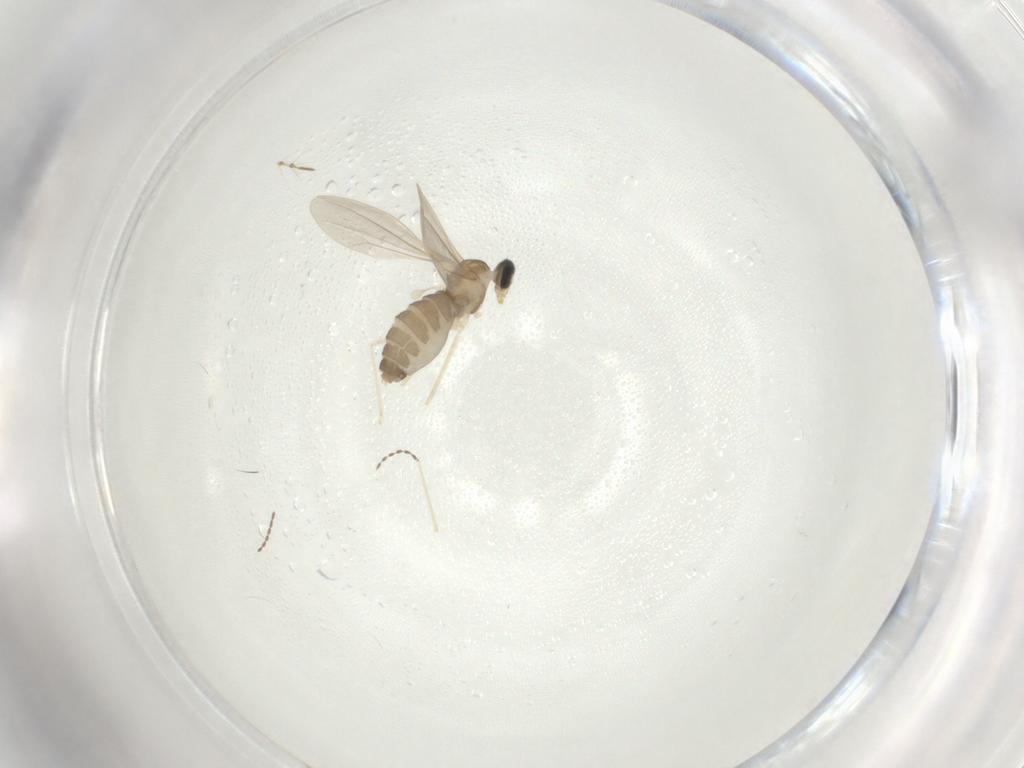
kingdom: Animalia
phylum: Arthropoda
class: Insecta
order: Diptera
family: Cecidomyiidae
